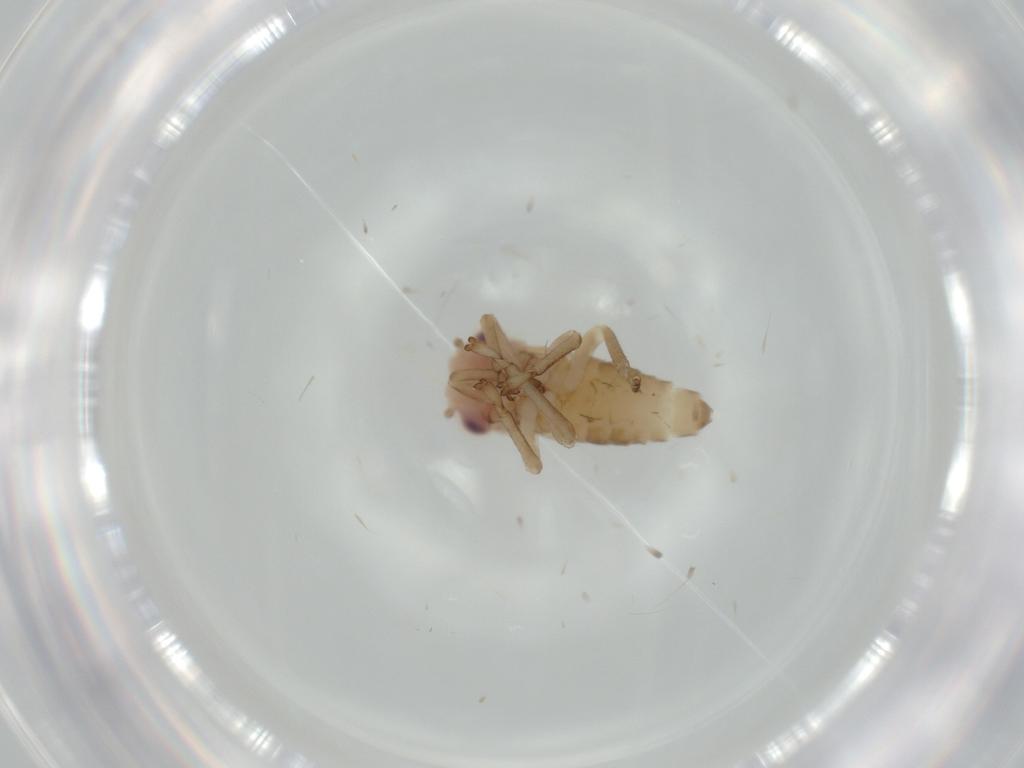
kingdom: Animalia
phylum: Arthropoda
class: Insecta
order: Hemiptera
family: Cicadellidae
